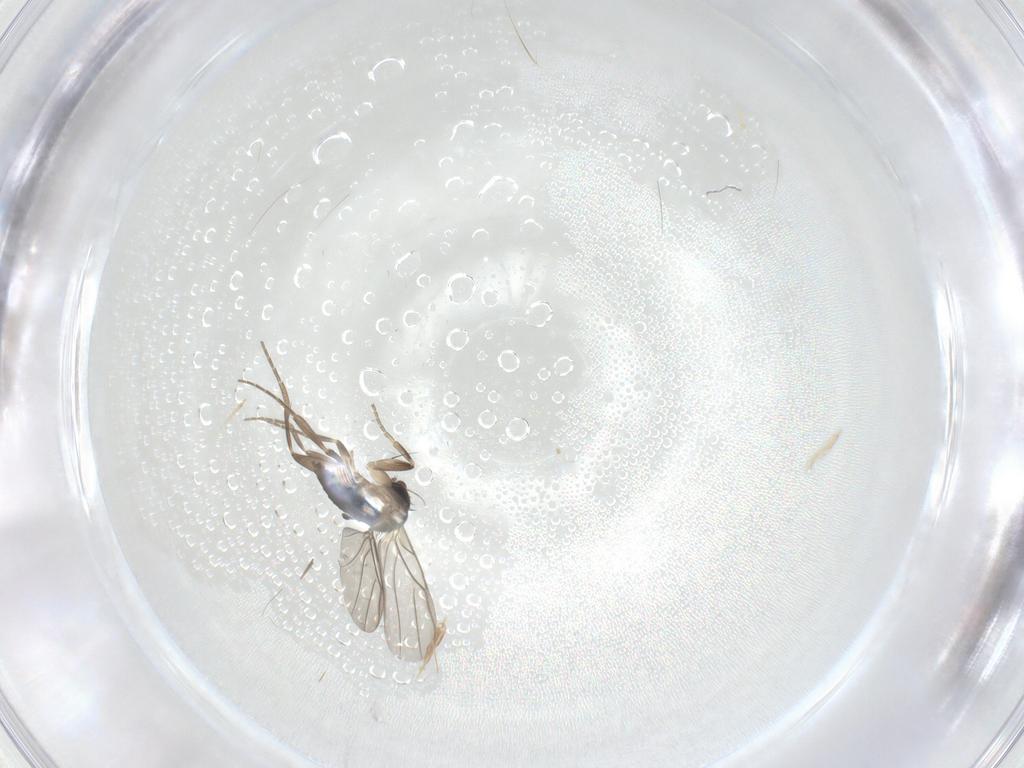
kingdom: Animalia
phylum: Arthropoda
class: Insecta
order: Diptera
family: Phoridae
